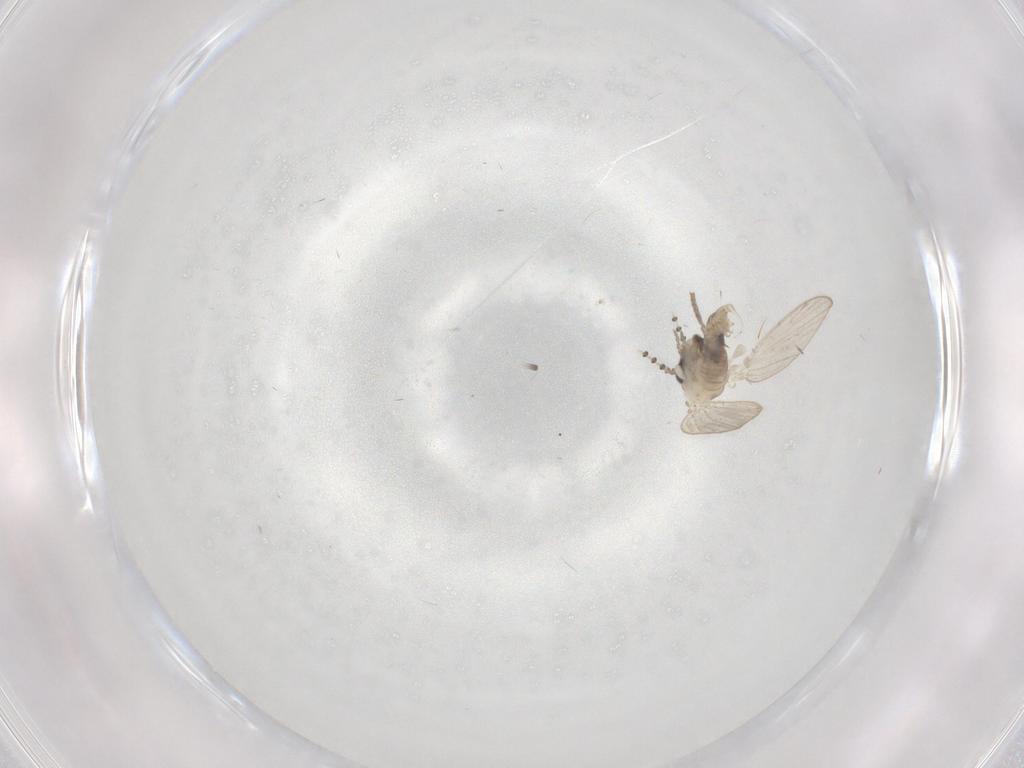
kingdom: Animalia
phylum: Arthropoda
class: Insecta
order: Diptera
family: Psychodidae
